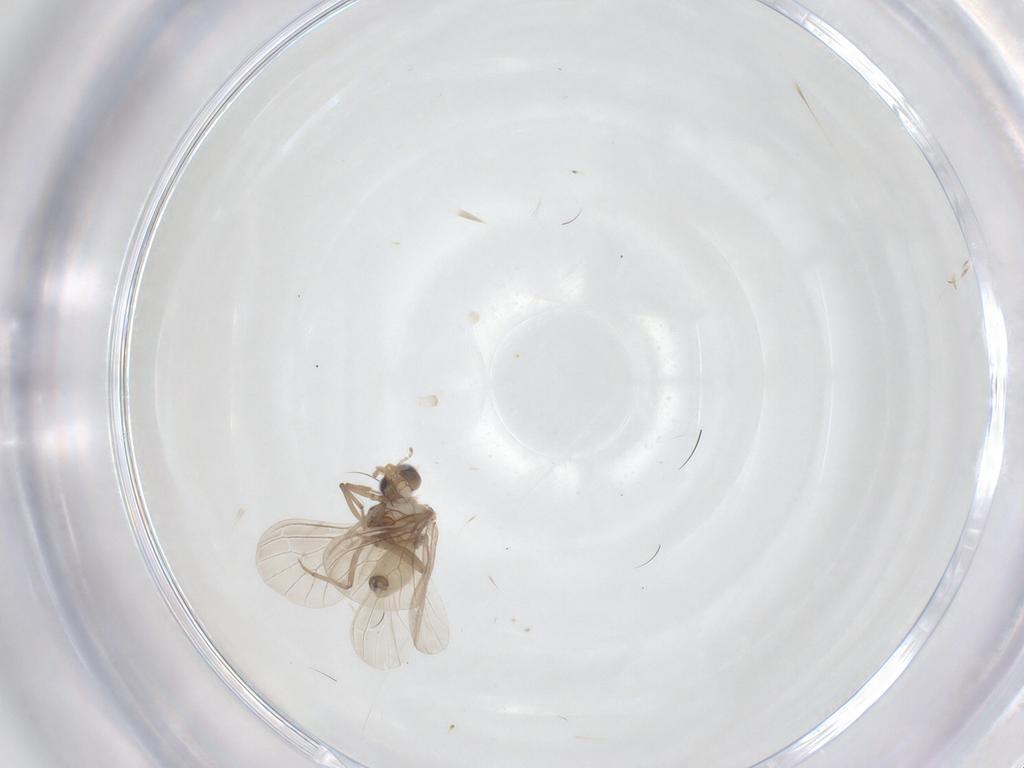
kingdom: Animalia
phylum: Arthropoda
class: Insecta
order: Neuroptera
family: Coniopterygidae
